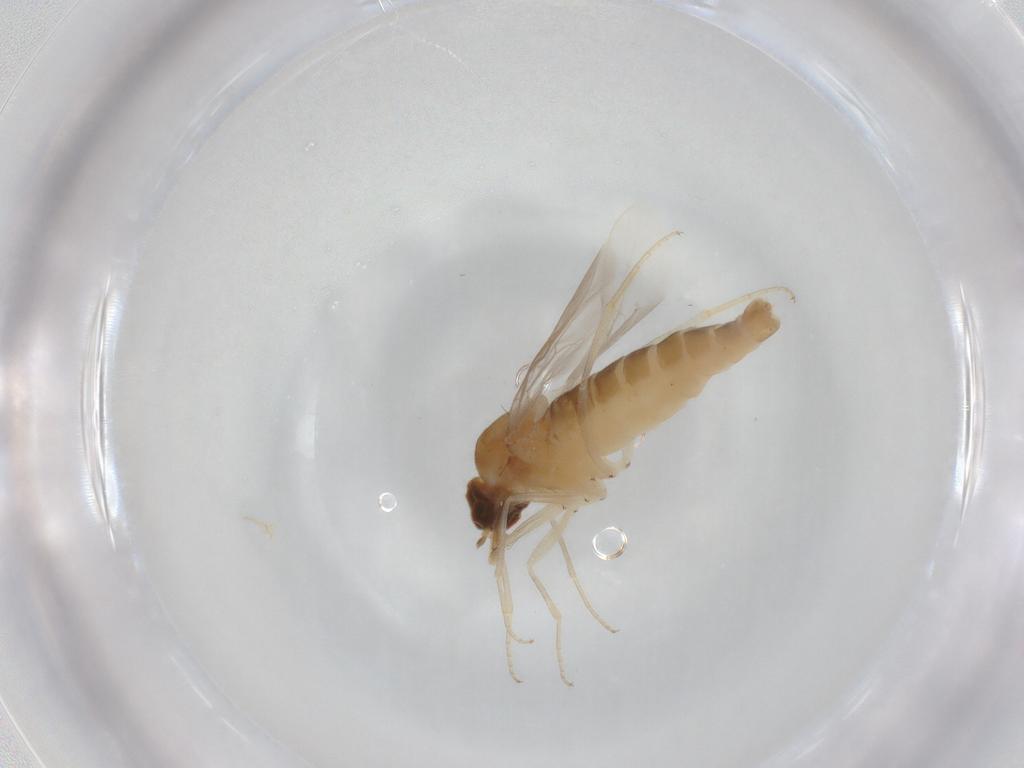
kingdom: Animalia
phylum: Arthropoda
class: Insecta
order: Diptera
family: Scenopinidae
